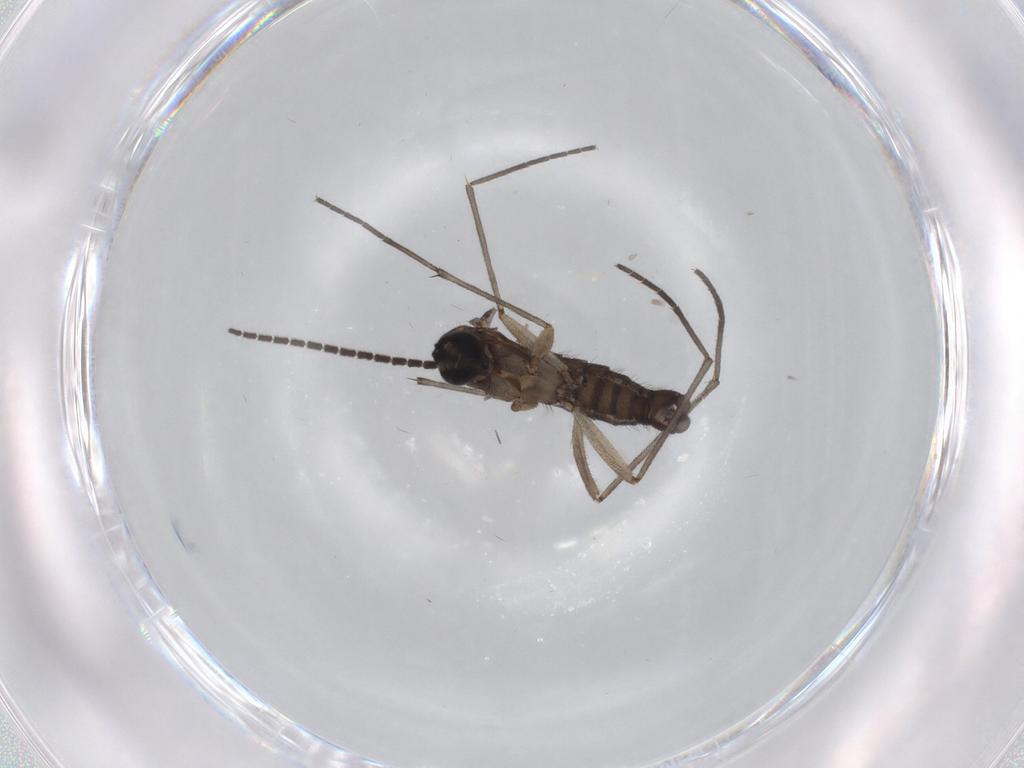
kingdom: Animalia
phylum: Arthropoda
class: Insecta
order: Diptera
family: Sciaridae
